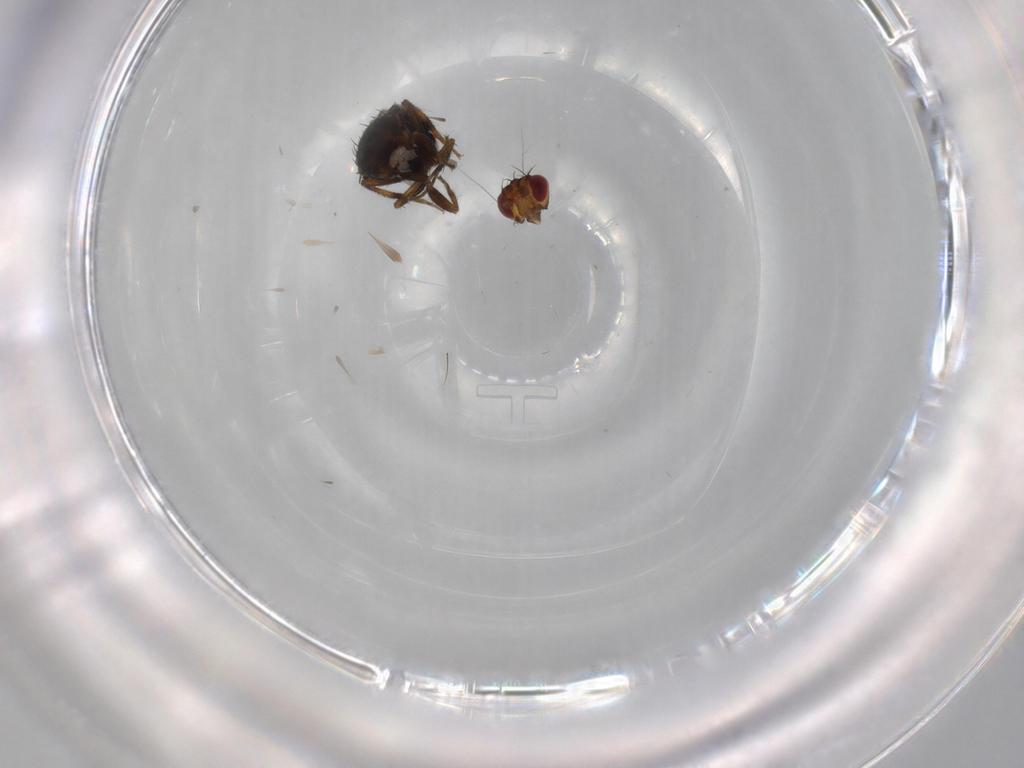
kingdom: Animalia
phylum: Arthropoda
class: Insecta
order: Diptera
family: Sphaeroceridae
